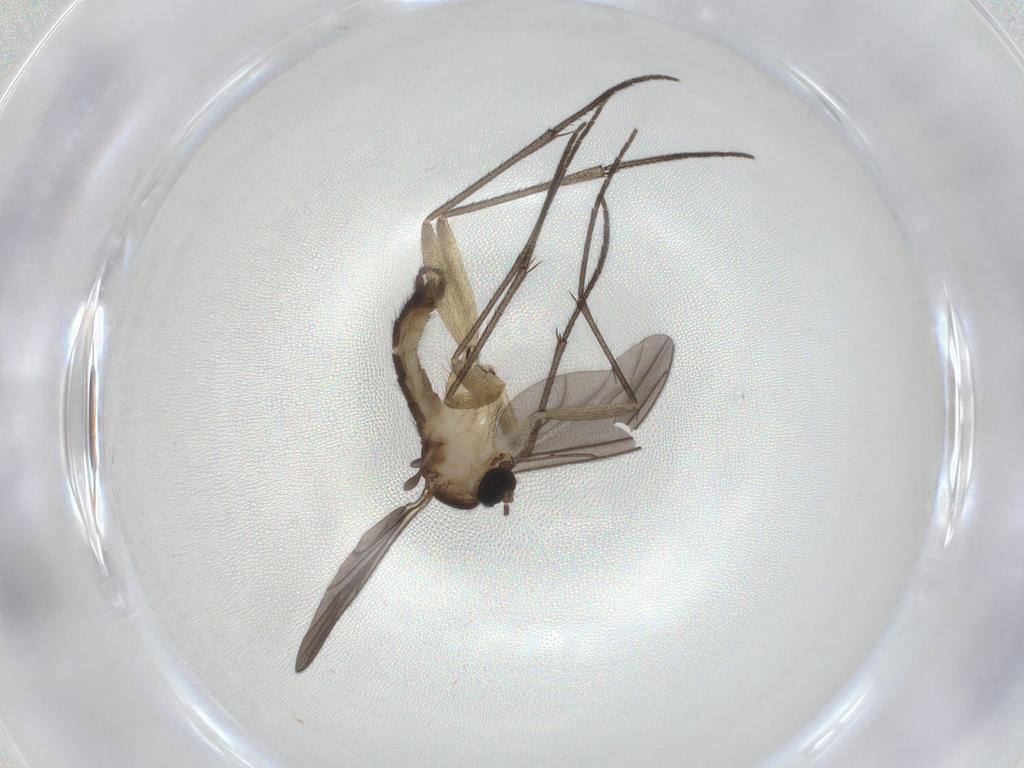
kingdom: Animalia
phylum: Arthropoda
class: Insecta
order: Diptera
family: Sciaridae
